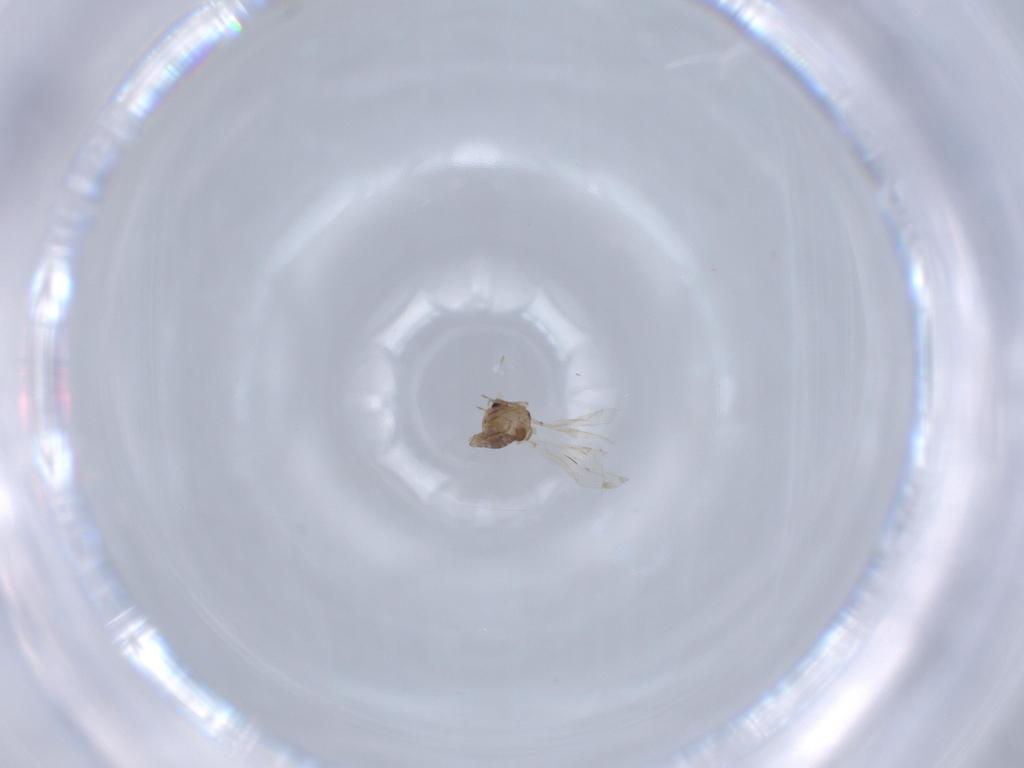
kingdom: Animalia
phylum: Arthropoda
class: Insecta
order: Diptera
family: Chironomidae
